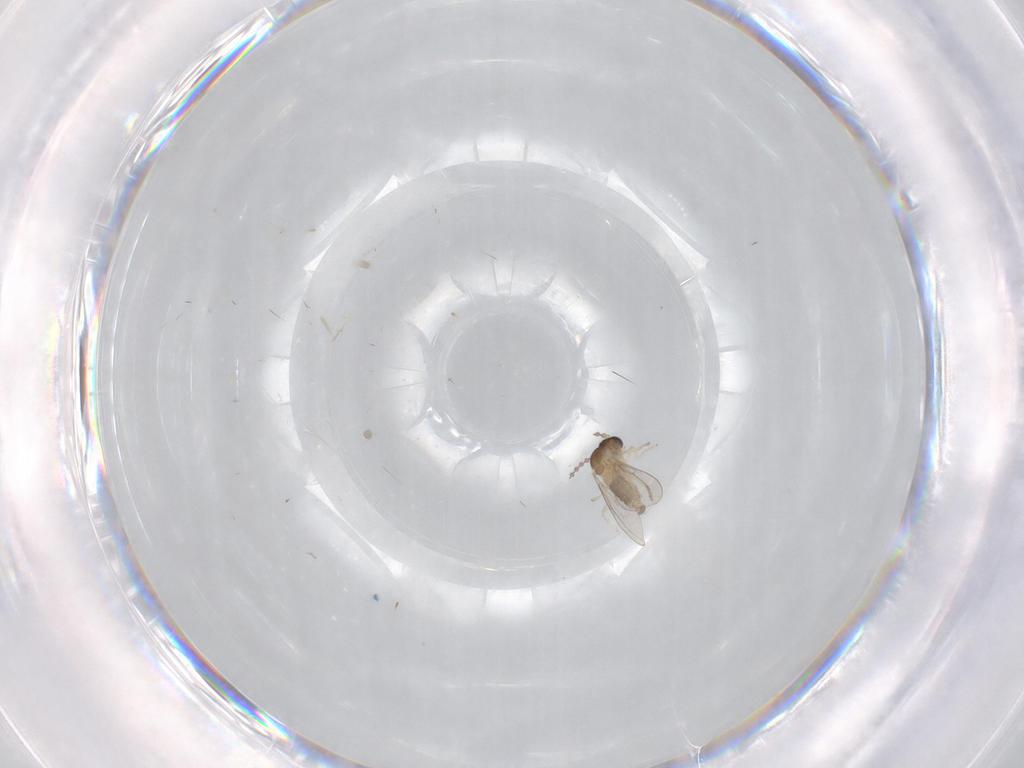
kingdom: Animalia
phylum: Arthropoda
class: Insecta
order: Diptera
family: Cecidomyiidae
